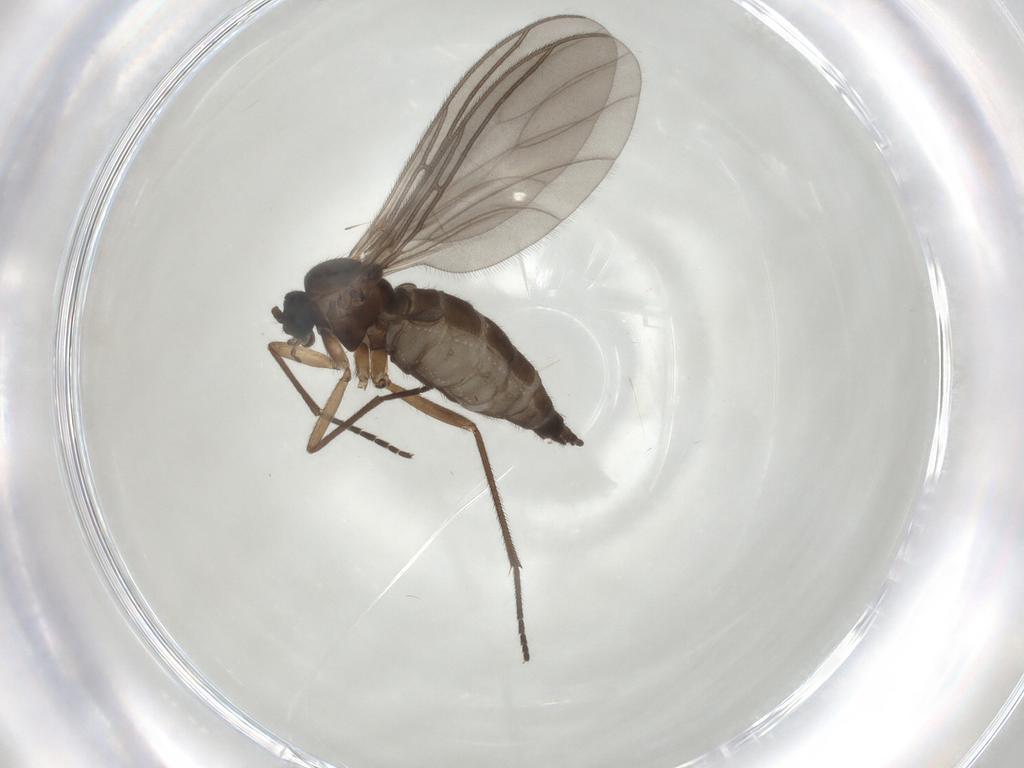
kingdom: Animalia
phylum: Arthropoda
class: Insecta
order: Diptera
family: Sciaridae
